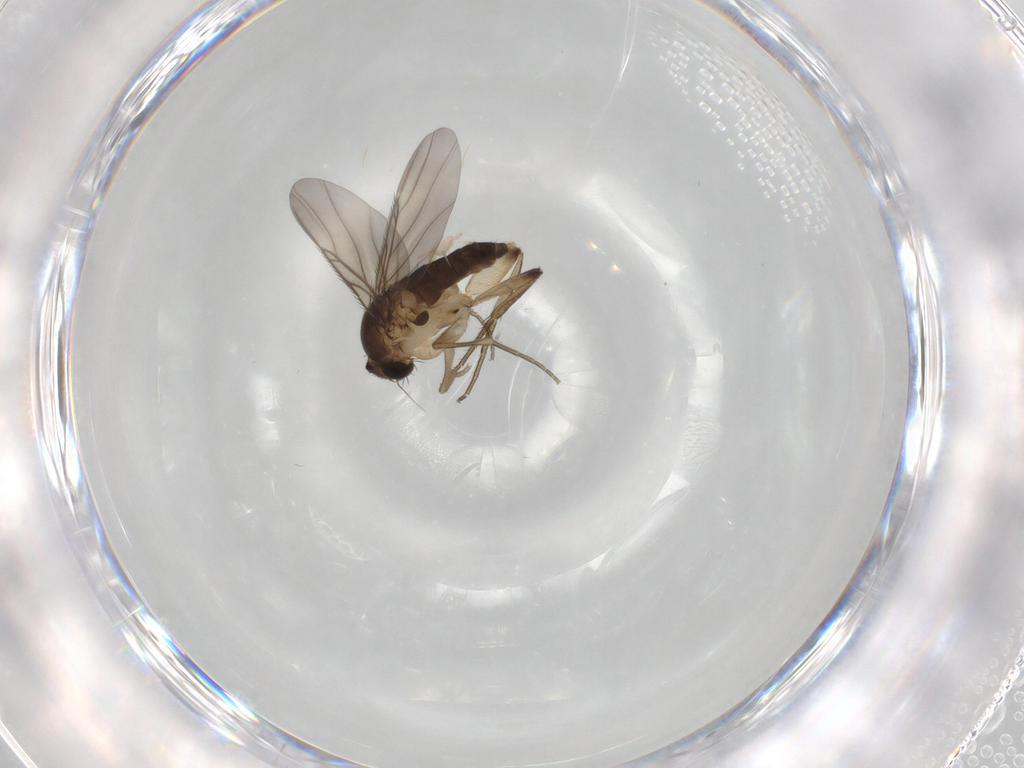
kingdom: Animalia
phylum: Arthropoda
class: Insecta
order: Diptera
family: Phoridae
